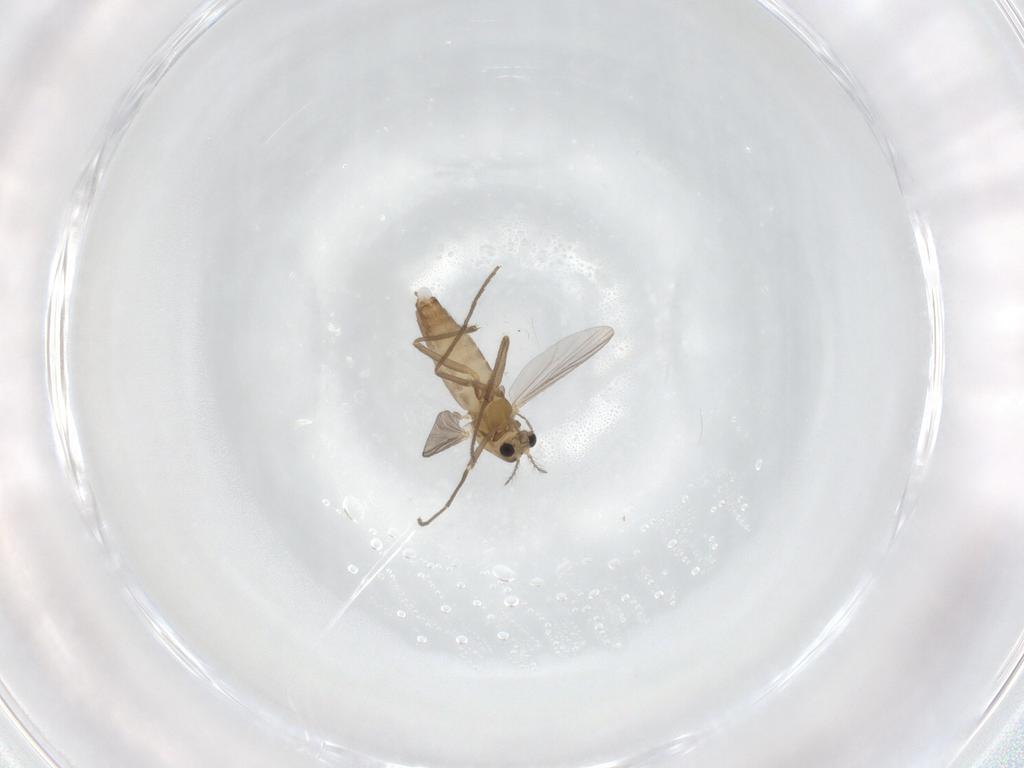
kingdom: Animalia
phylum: Arthropoda
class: Insecta
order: Diptera
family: Chironomidae
